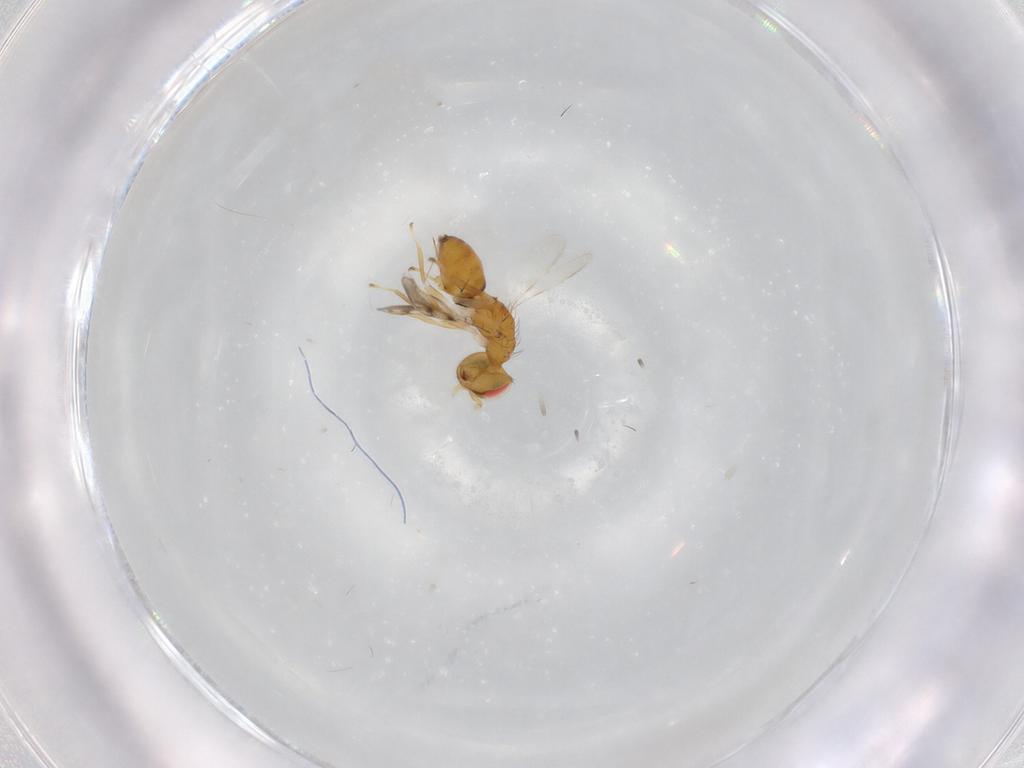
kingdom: Animalia
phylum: Arthropoda
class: Insecta
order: Hymenoptera
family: Eulophidae
